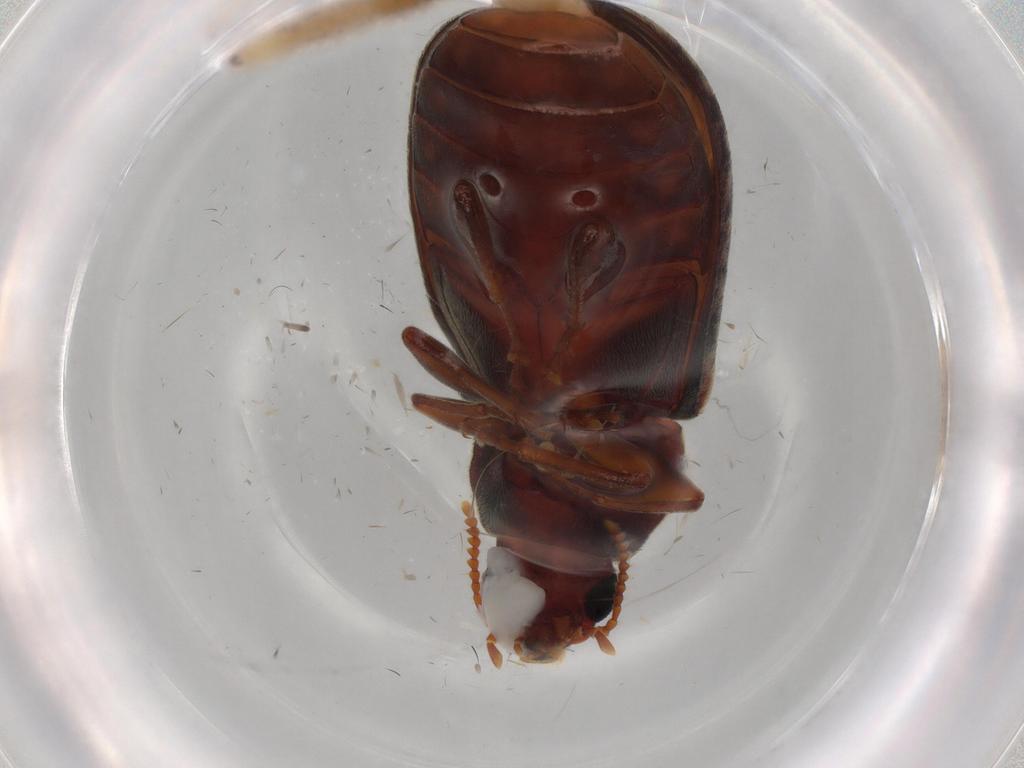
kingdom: Animalia
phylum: Arthropoda
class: Insecta
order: Coleoptera
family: Mycteridae
